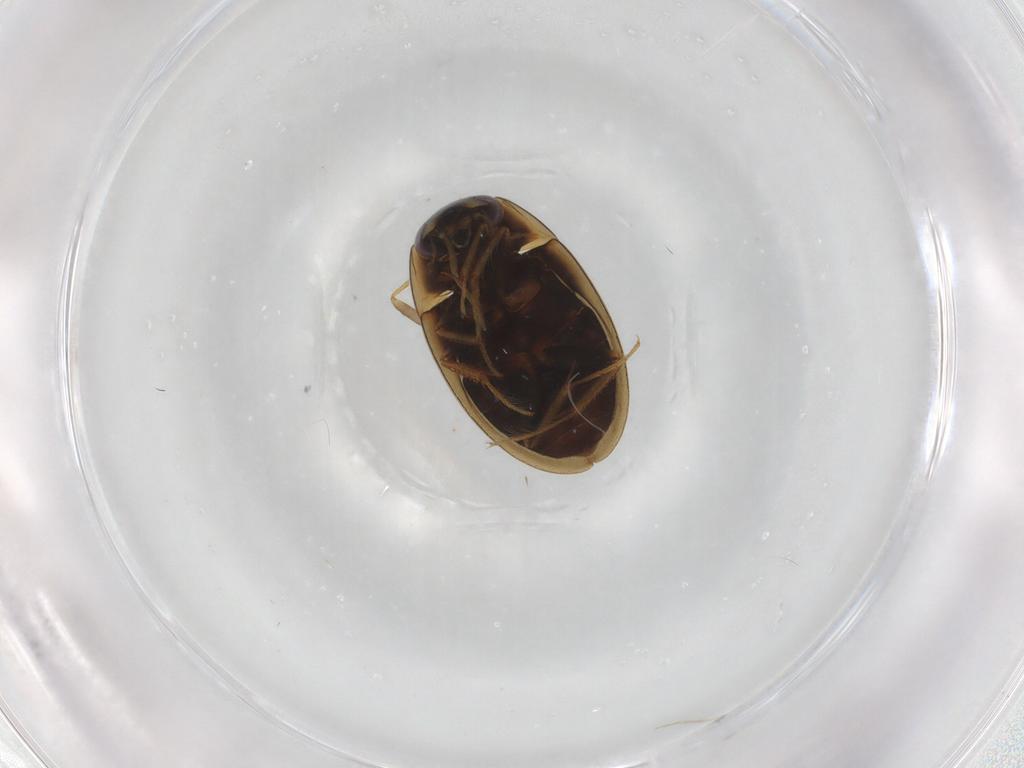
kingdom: Animalia
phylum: Arthropoda
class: Insecta
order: Coleoptera
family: Hydrophilidae
